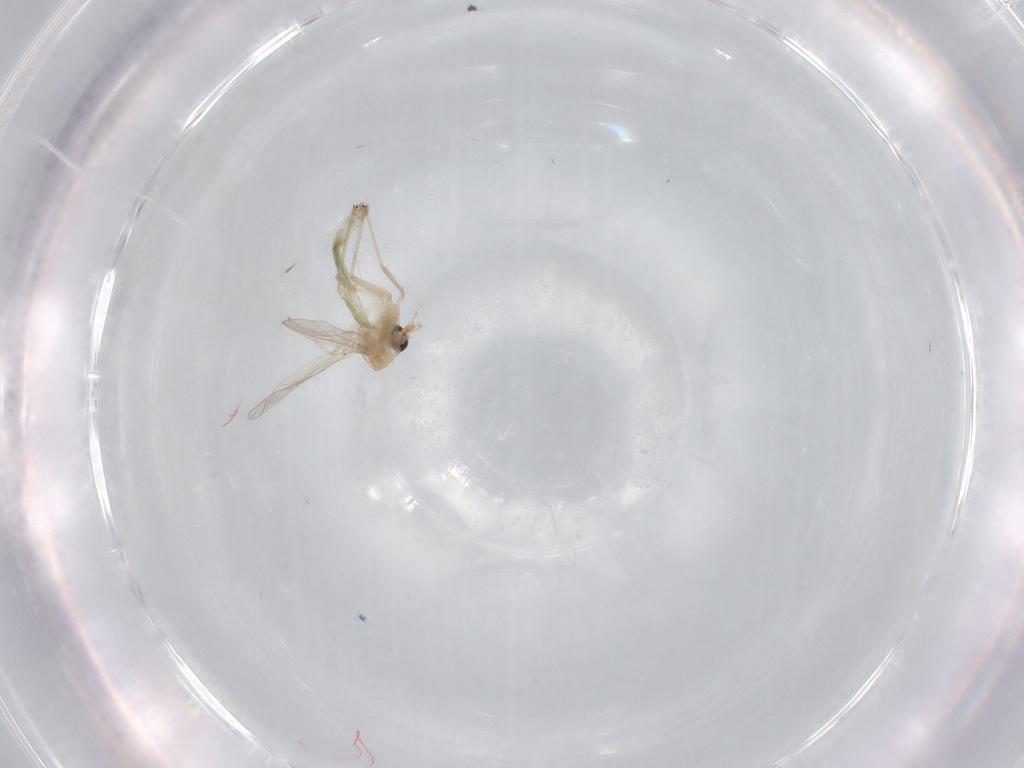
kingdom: Animalia
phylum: Arthropoda
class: Insecta
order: Diptera
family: Chironomidae
